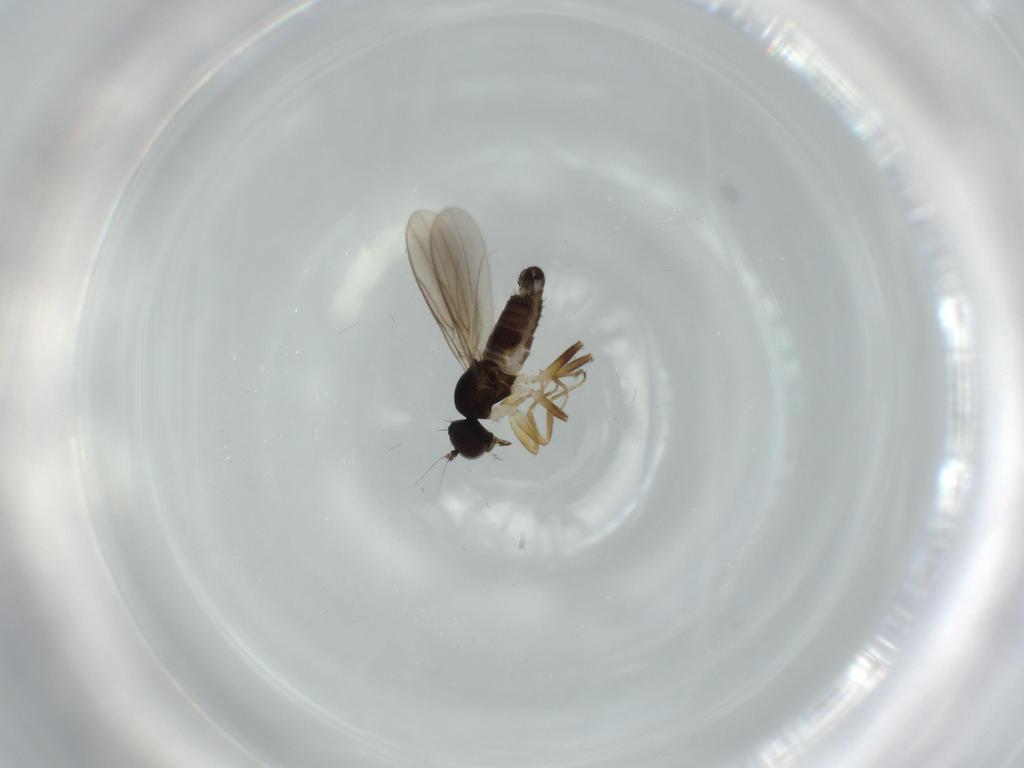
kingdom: Animalia
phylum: Arthropoda
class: Insecta
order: Diptera
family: Hybotidae
